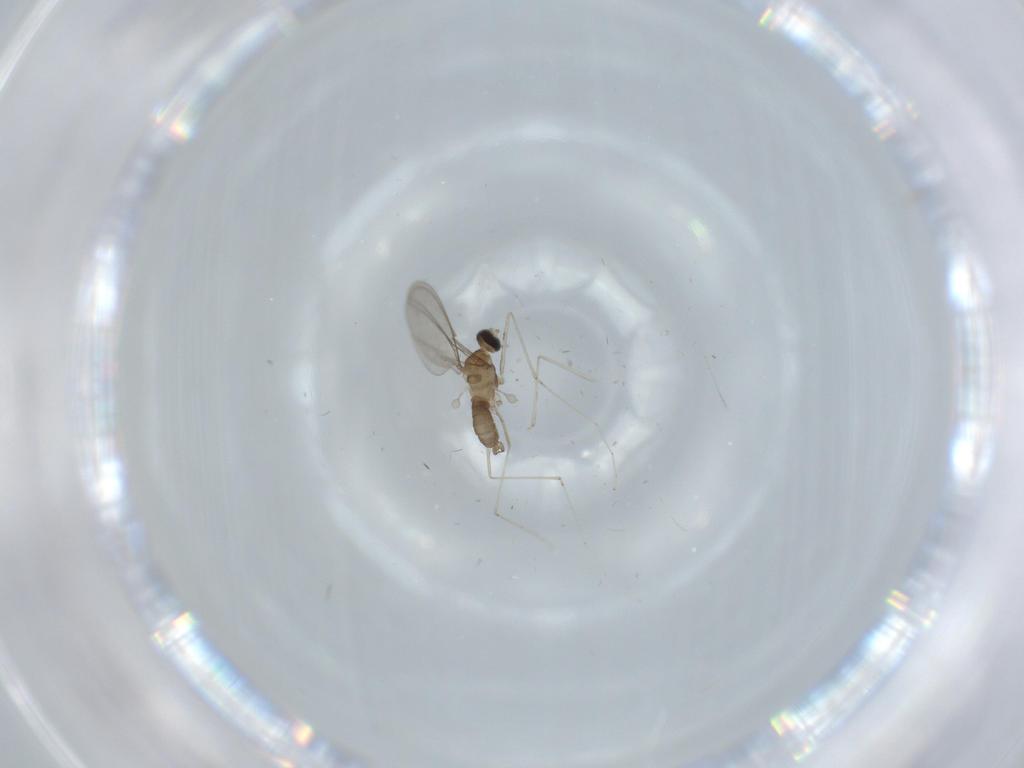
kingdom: Animalia
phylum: Arthropoda
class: Insecta
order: Diptera
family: Cecidomyiidae
